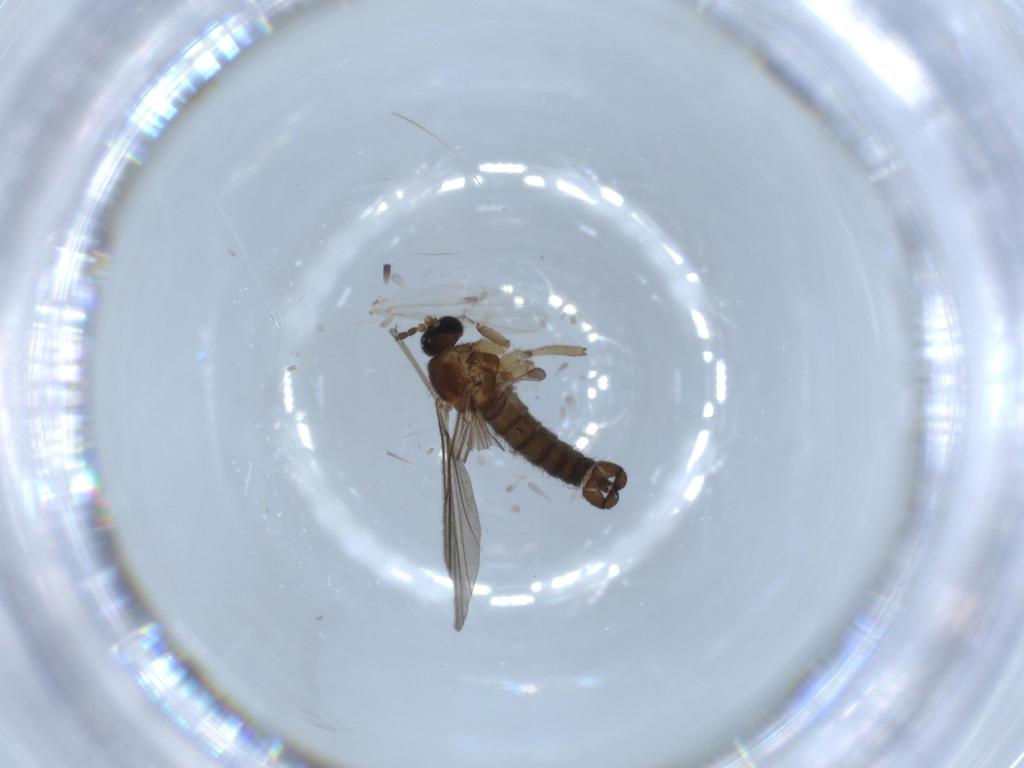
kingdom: Animalia
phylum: Arthropoda
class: Insecta
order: Diptera
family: Sciaridae
